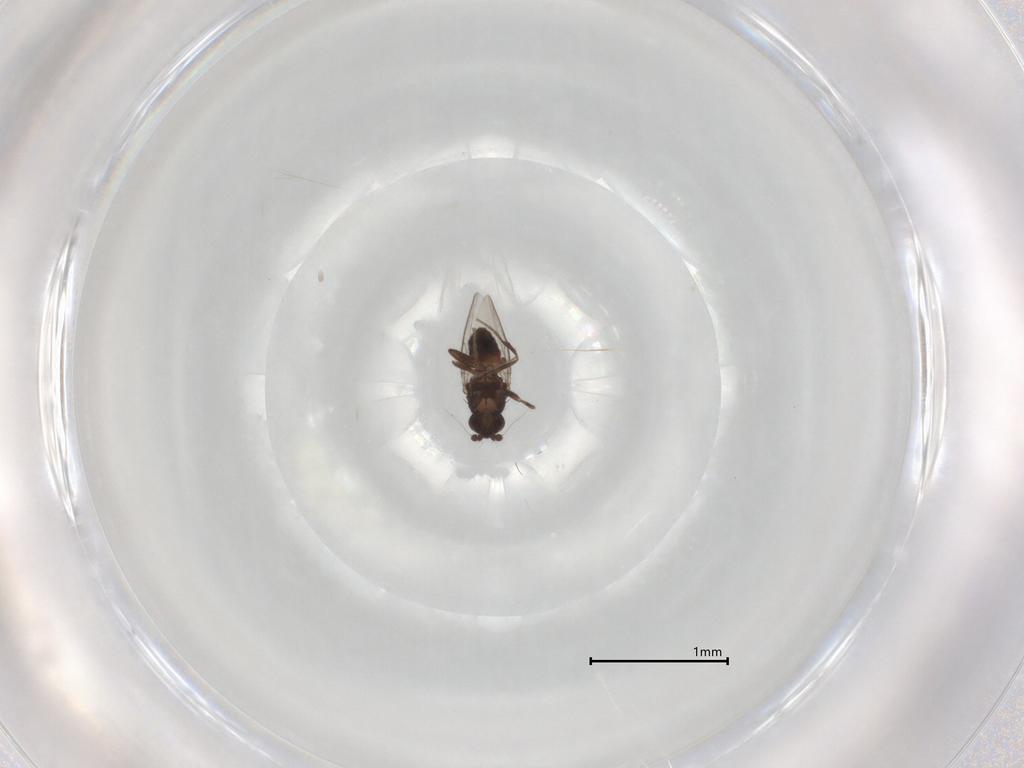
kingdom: Animalia
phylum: Arthropoda
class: Insecta
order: Diptera
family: Sphaeroceridae
